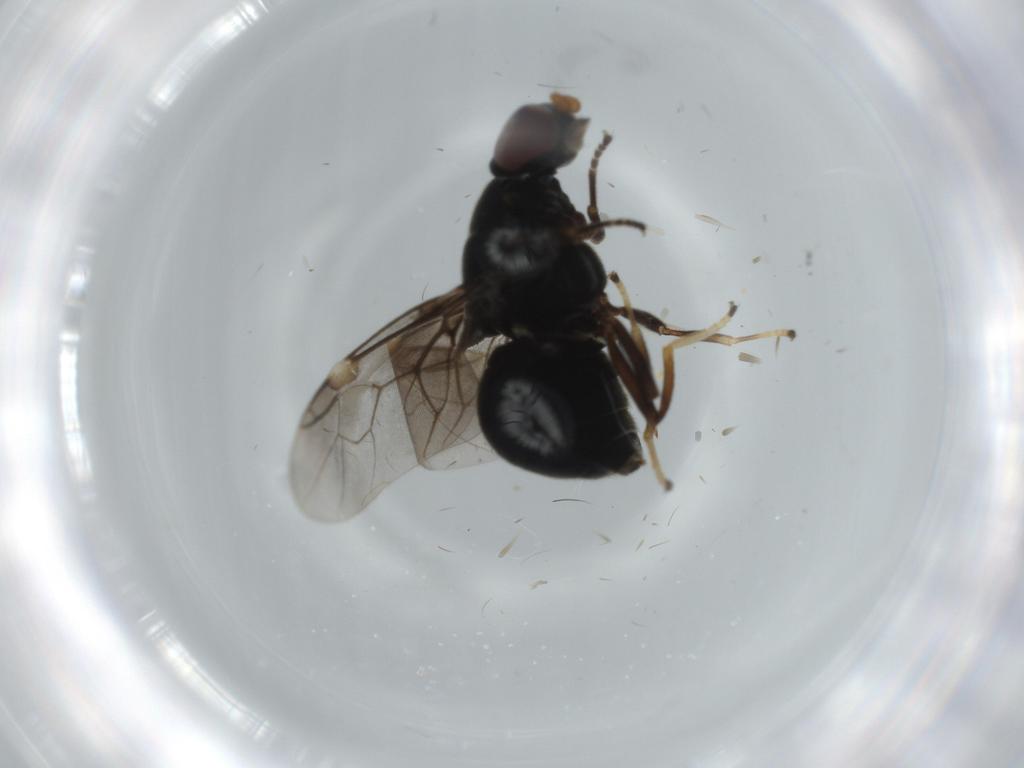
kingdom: Animalia
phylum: Arthropoda
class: Insecta
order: Diptera
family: Stratiomyidae
